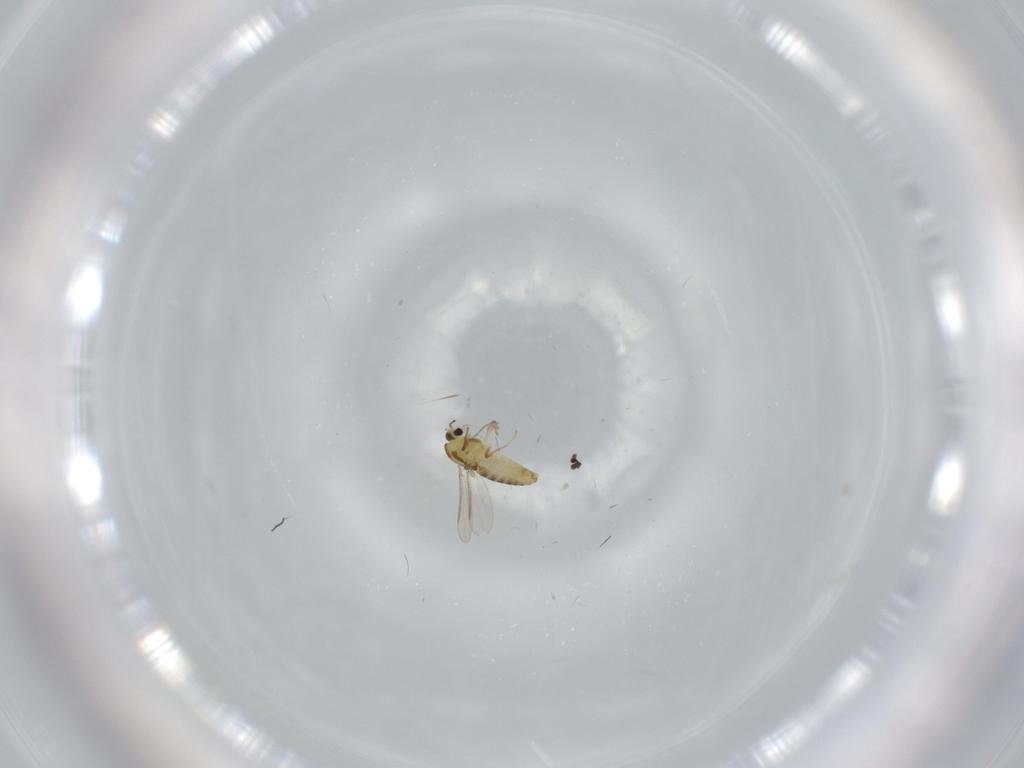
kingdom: Animalia
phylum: Arthropoda
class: Insecta
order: Diptera
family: Chironomidae
